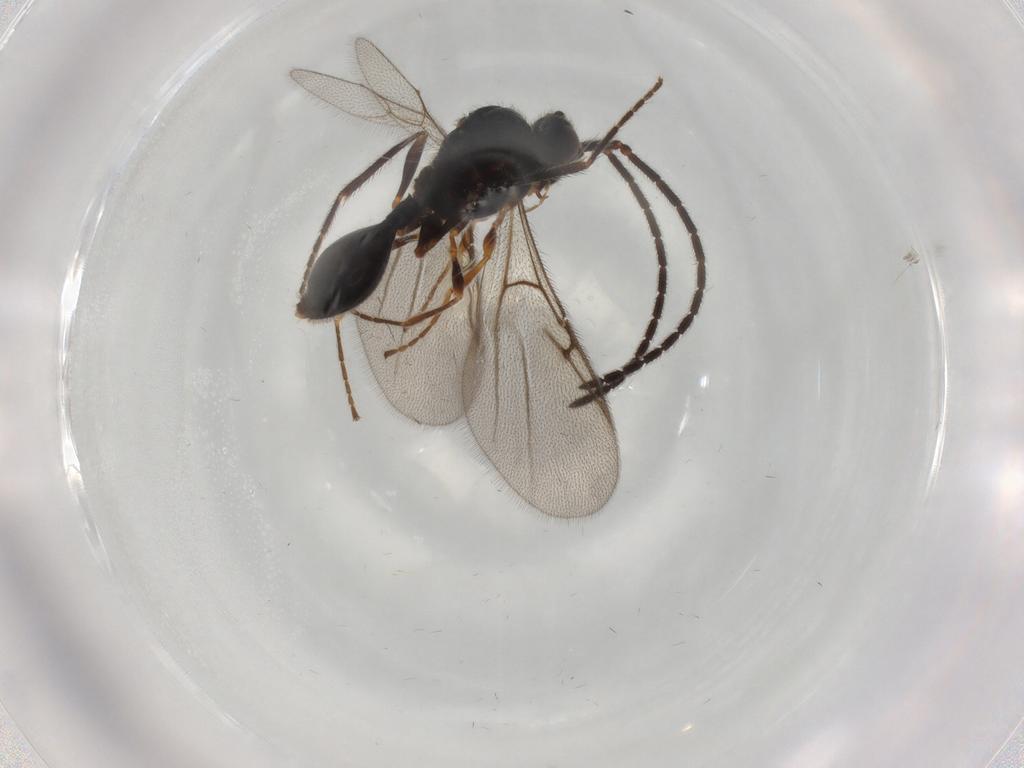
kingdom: Animalia
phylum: Arthropoda
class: Insecta
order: Hymenoptera
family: Diapriidae
